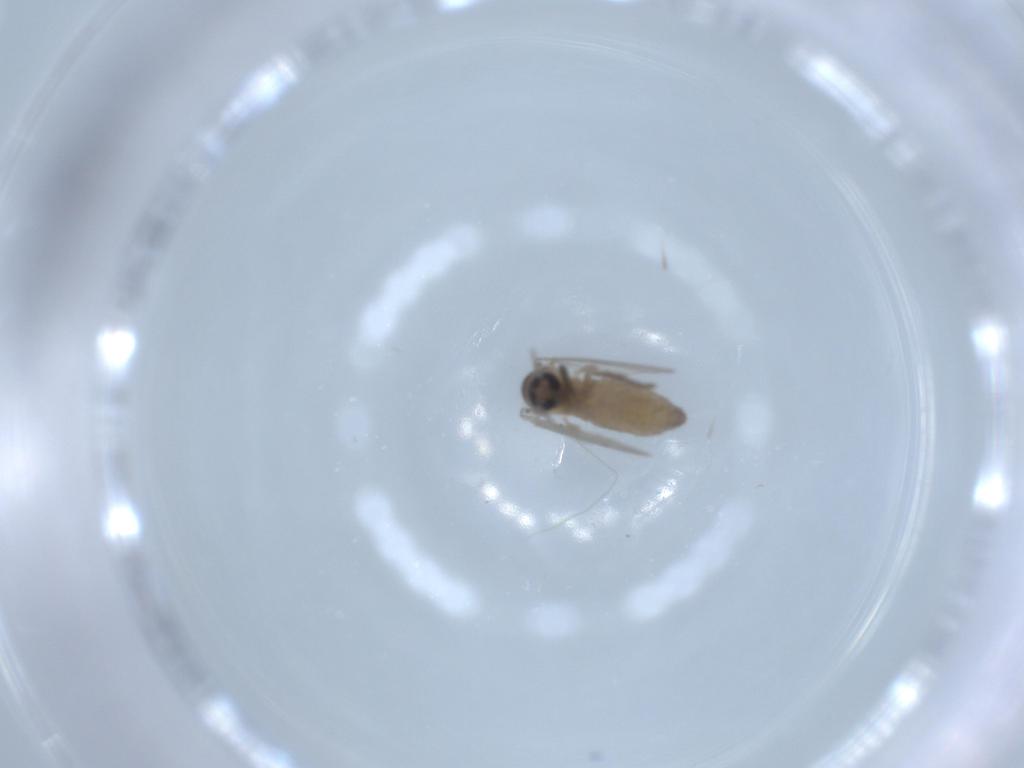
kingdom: Animalia
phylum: Arthropoda
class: Insecta
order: Diptera
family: Psychodidae
